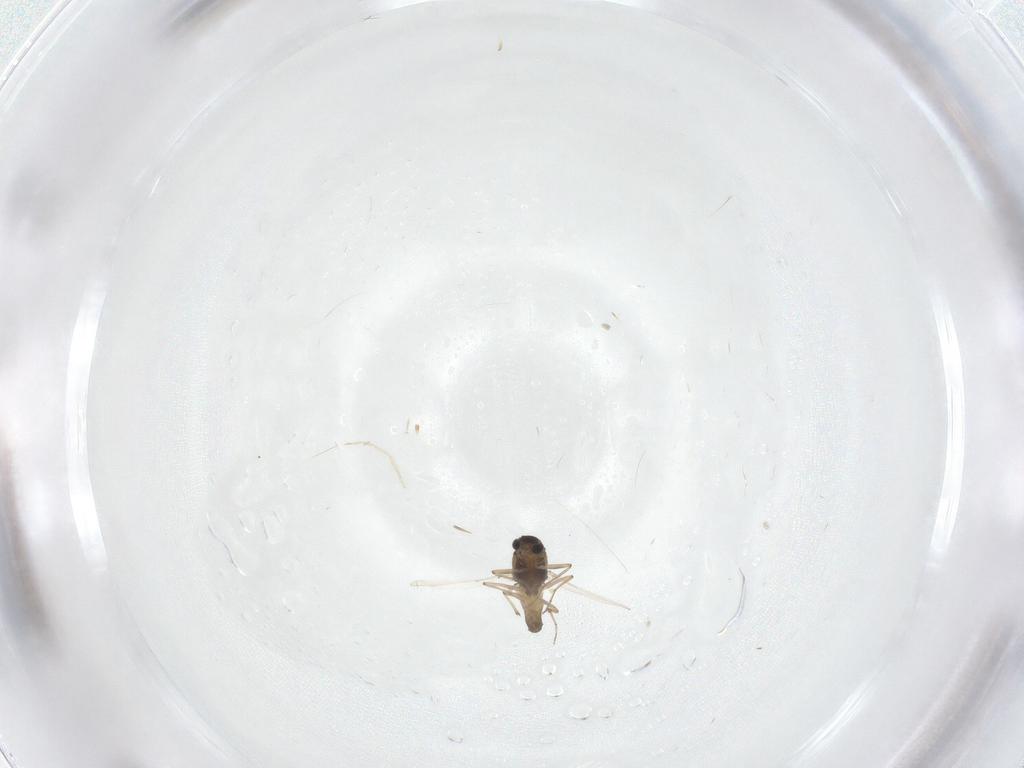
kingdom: Animalia
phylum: Arthropoda
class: Insecta
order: Diptera
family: Chironomidae
